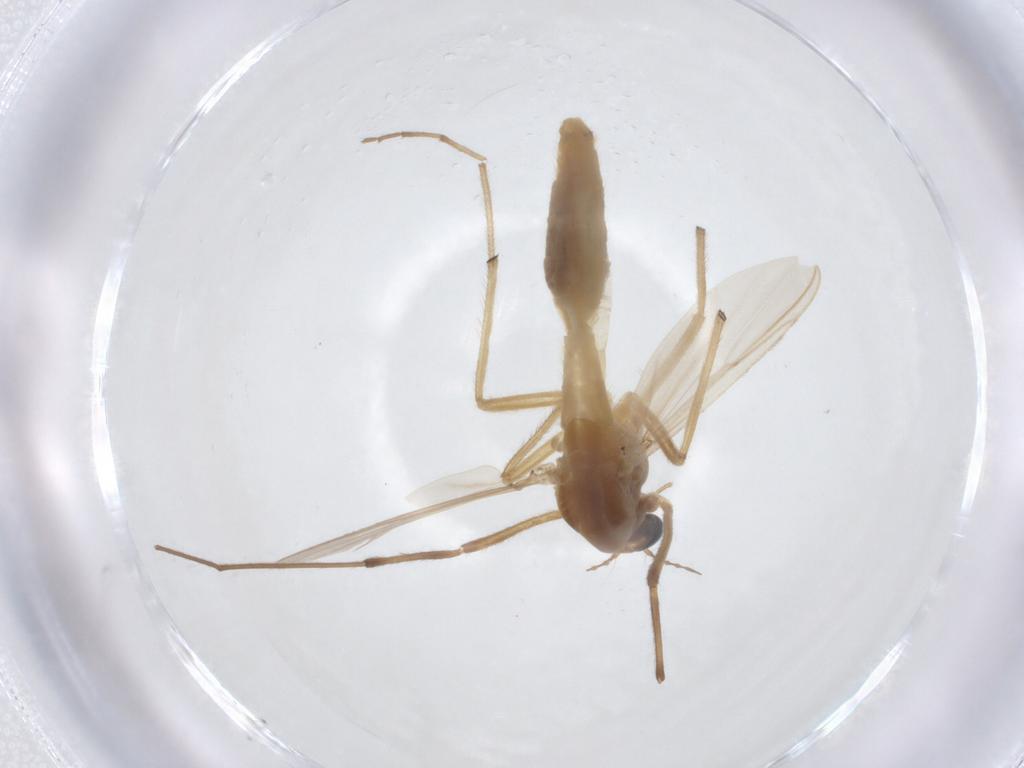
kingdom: Animalia
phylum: Arthropoda
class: Insecta
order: Diptera
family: Chironomidae
